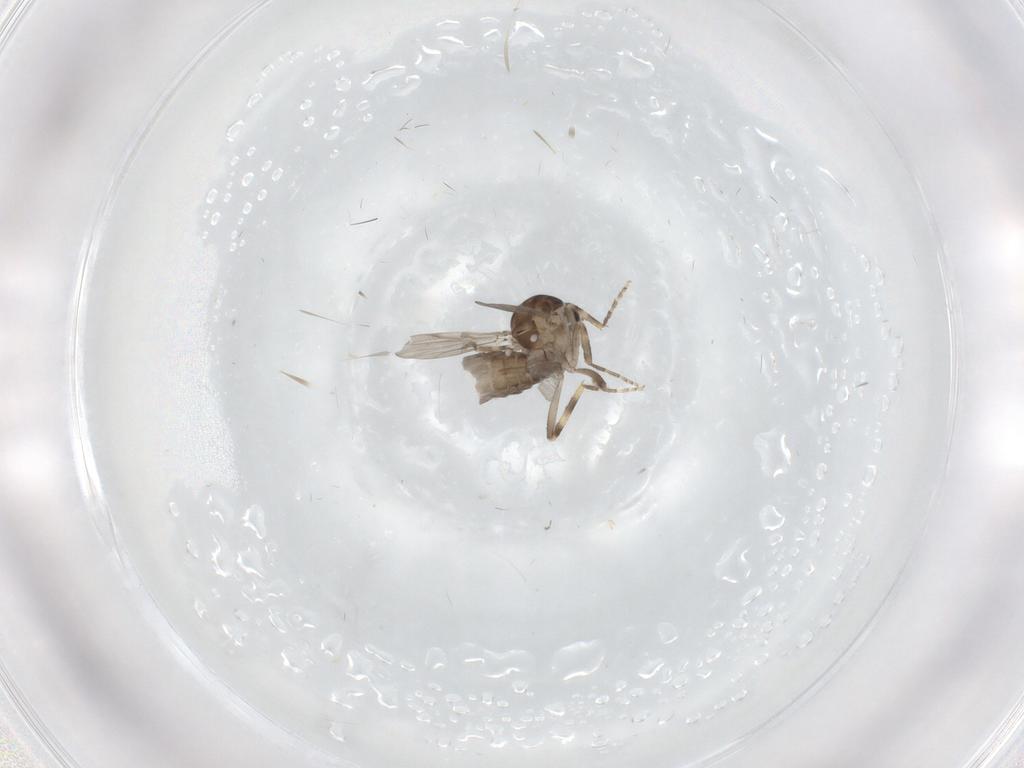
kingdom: Animalia
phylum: Arthropoda
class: Insecta
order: Diptera
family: Ceratopogonidae
